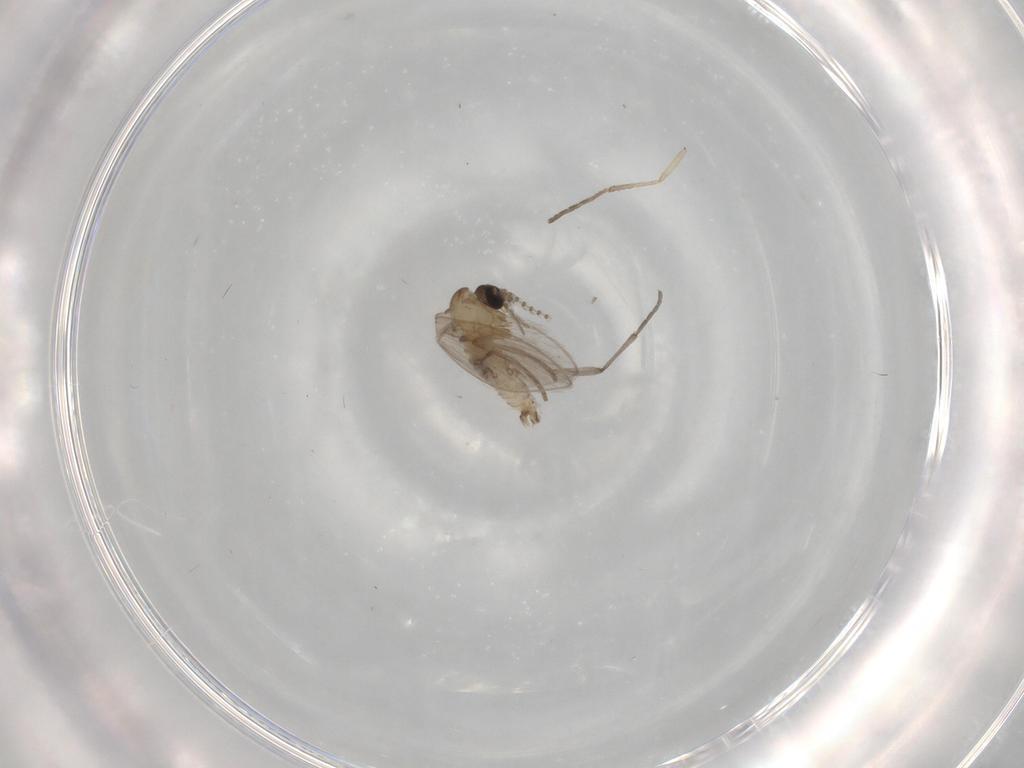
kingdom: Animalia
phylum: Arthropoda
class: Insecta
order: Diptera
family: Psychodidae
